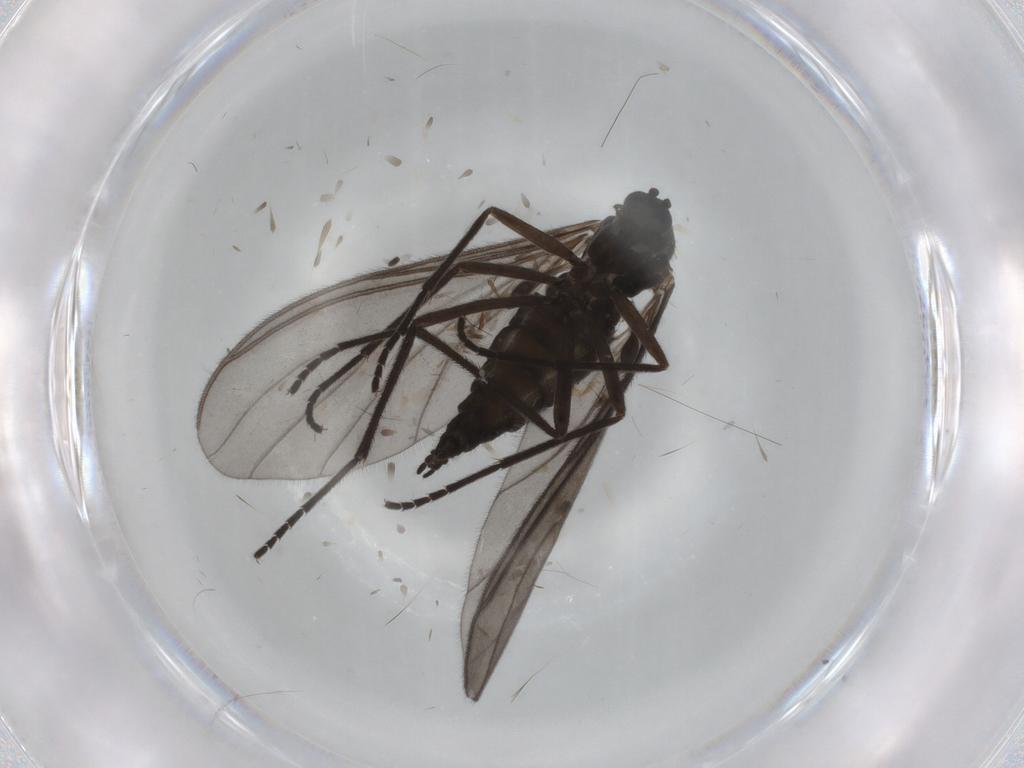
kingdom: Animalia
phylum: Arthropoda
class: Insecta
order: Diptera
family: Sciaridae
